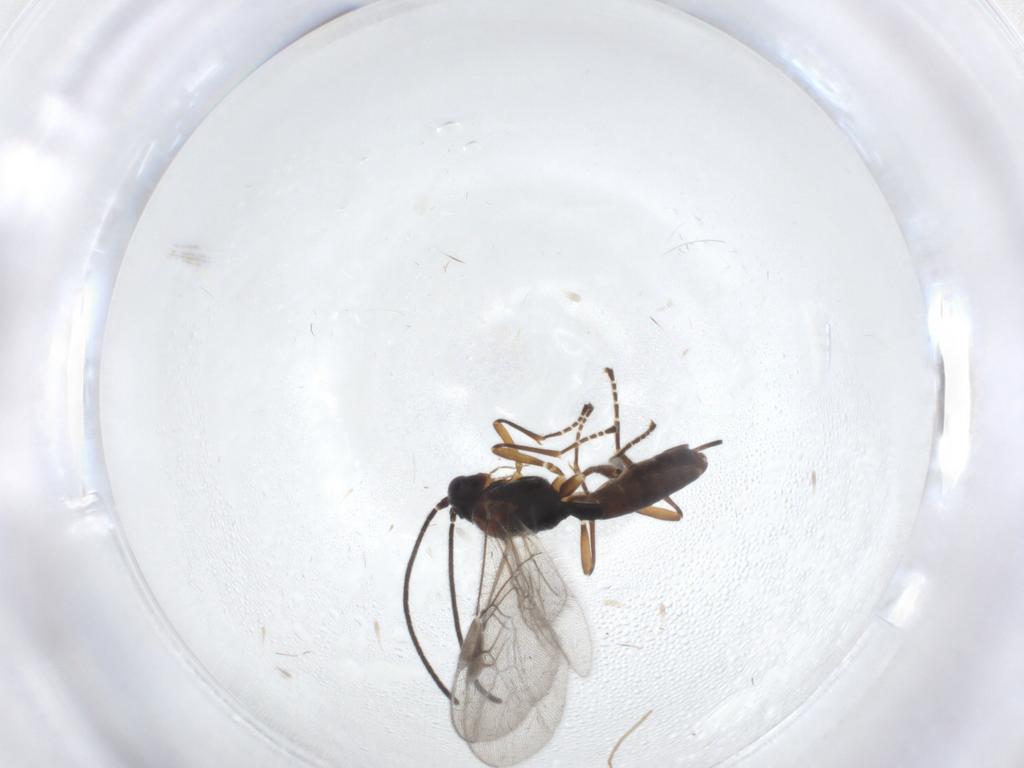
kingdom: Animalia
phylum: Arthropoda
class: Insecta
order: Hymenoptera
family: Braconidae
